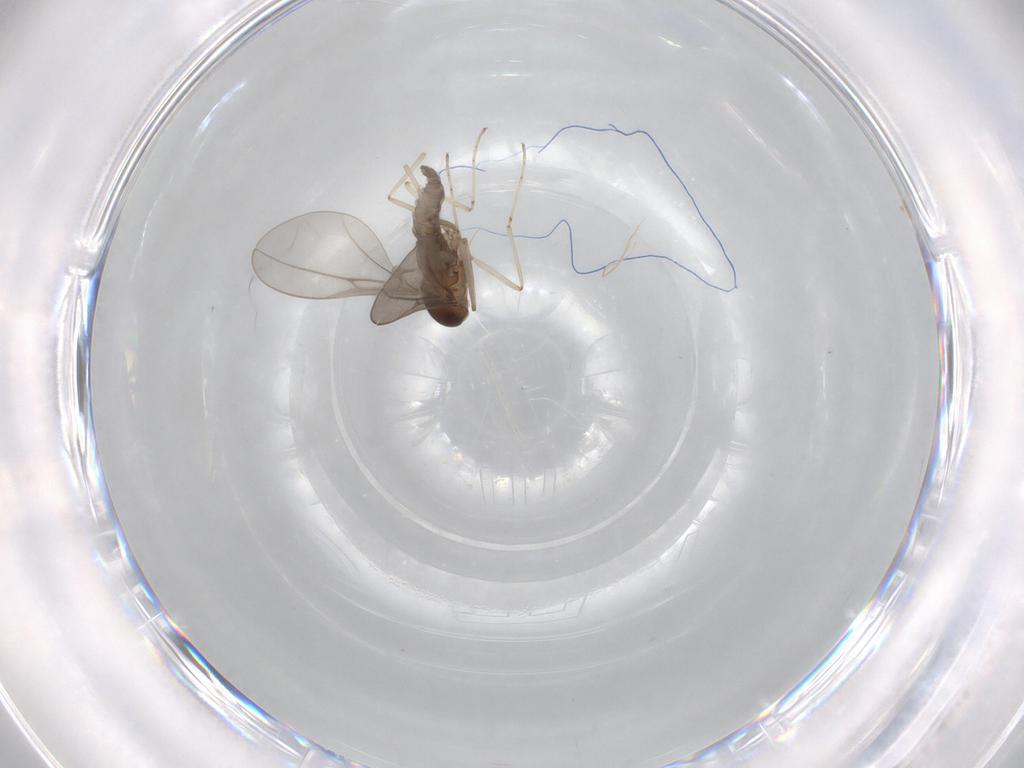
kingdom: Animalia
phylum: Arthropoda
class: Insecta
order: Diptera
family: Cecidomyiidae
